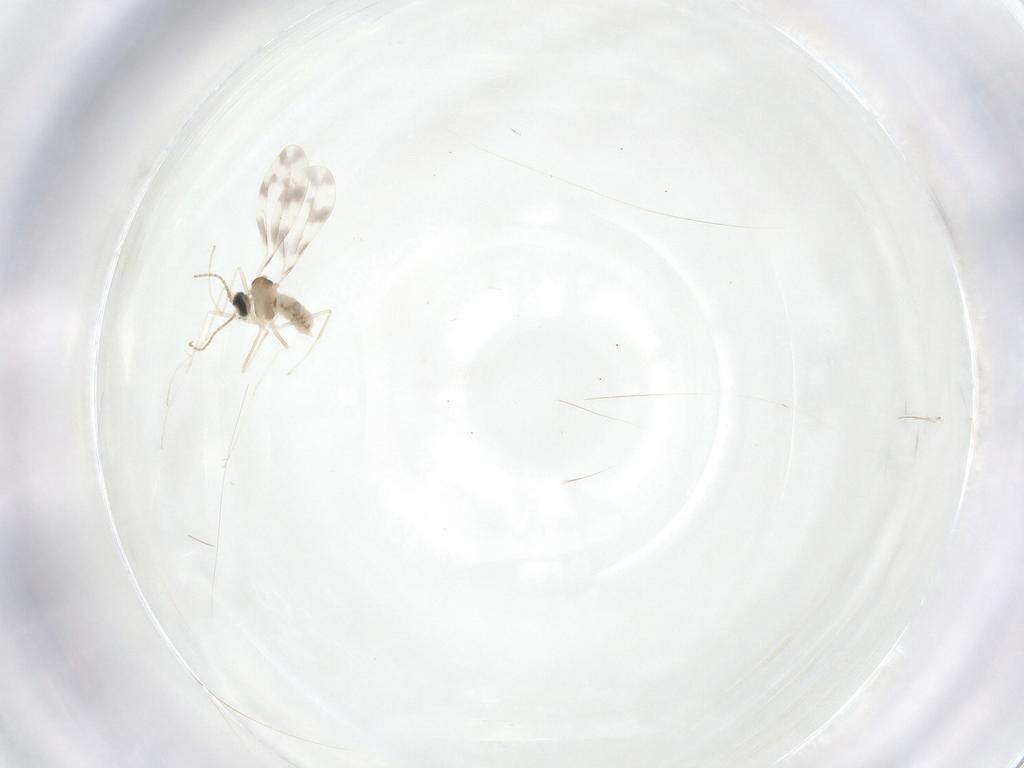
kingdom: Animalia
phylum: Arthropoda
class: Insecta
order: Diptera
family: Cecidomyiidae
